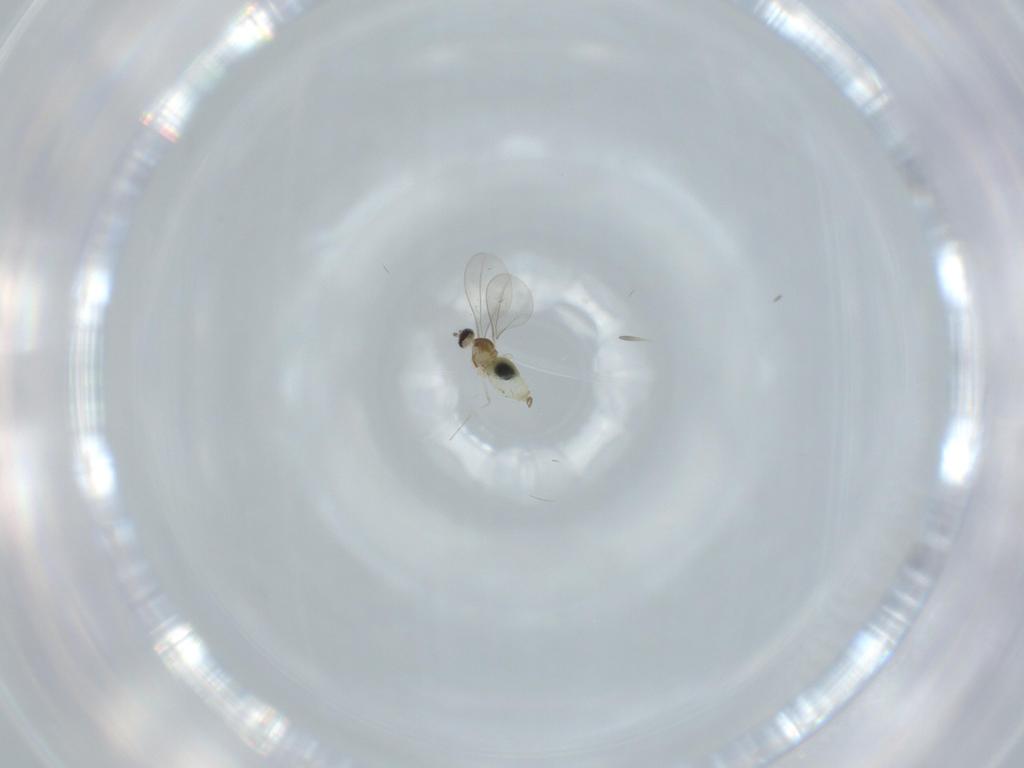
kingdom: Animalia
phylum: Arthropoda
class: Insecta
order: Diptera
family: Cecidomyiidae
